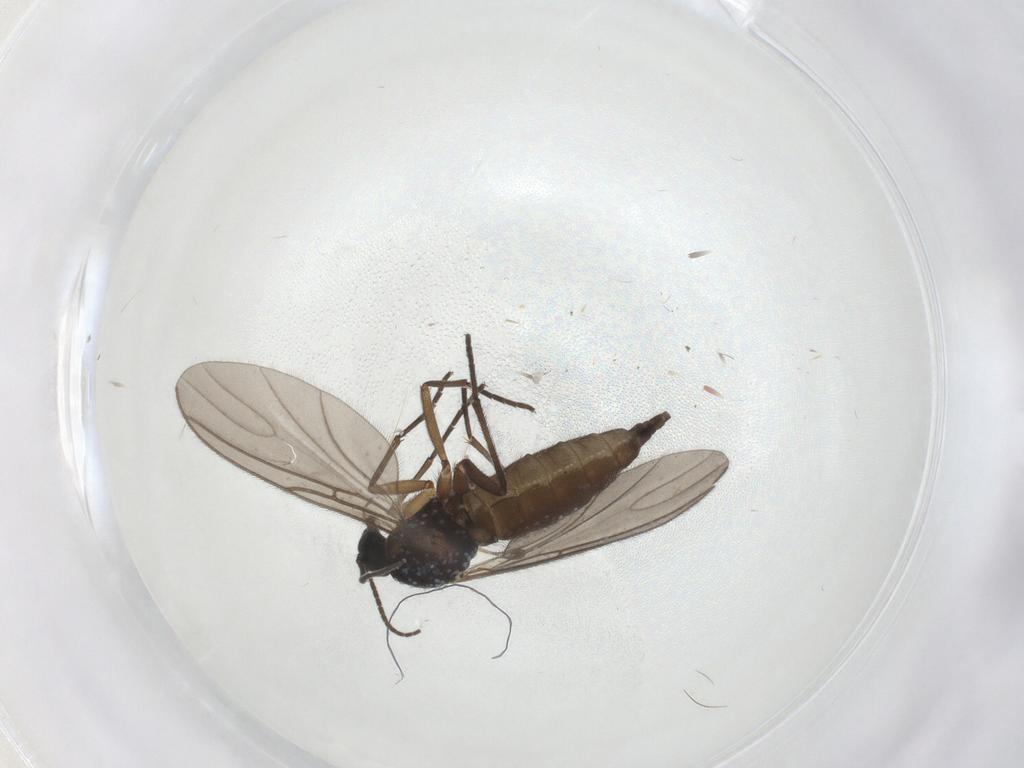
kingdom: Animalia
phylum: Arthropoda
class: Insecta
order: Diptera
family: Sciaridae
